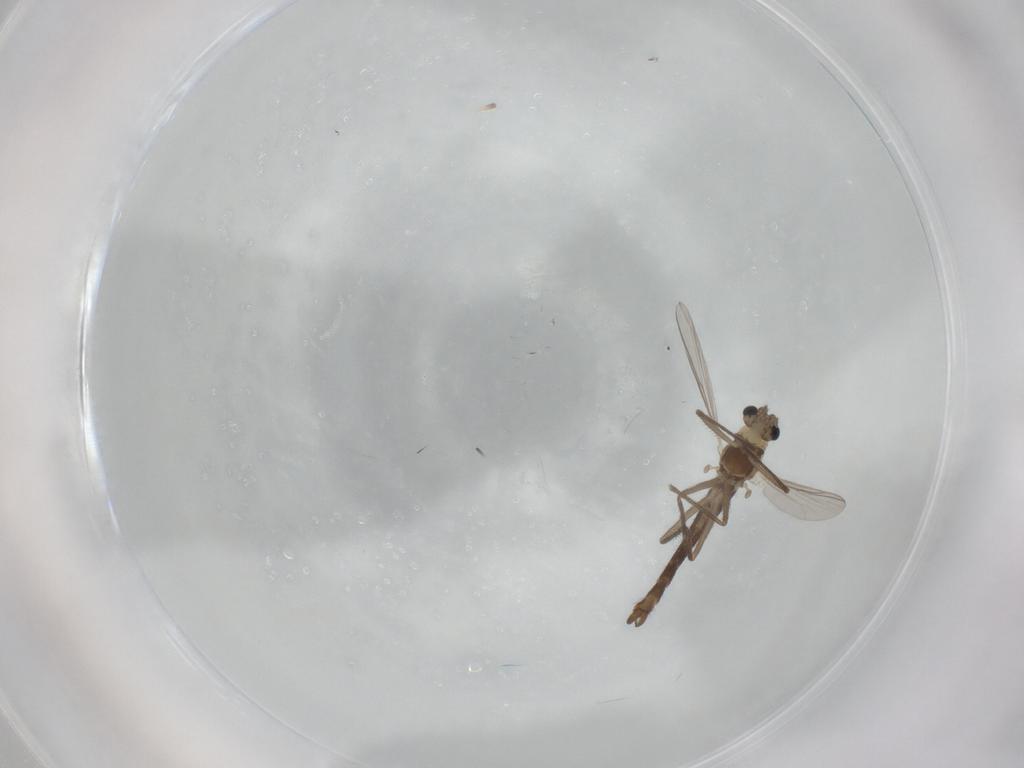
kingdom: Animalia
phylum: Arthropoda
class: Insecta
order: Diptera
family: Chironomidae
